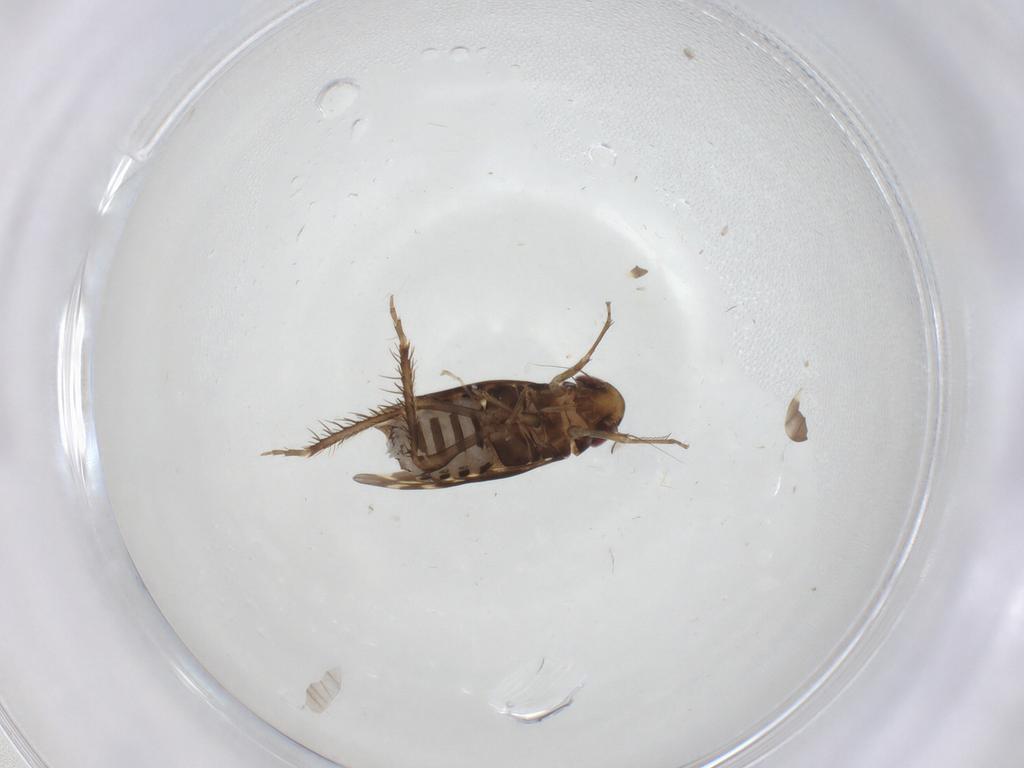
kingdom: Animalia
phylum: Arthropoda
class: Insecta
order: Hemiptera
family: Cicadellidae
